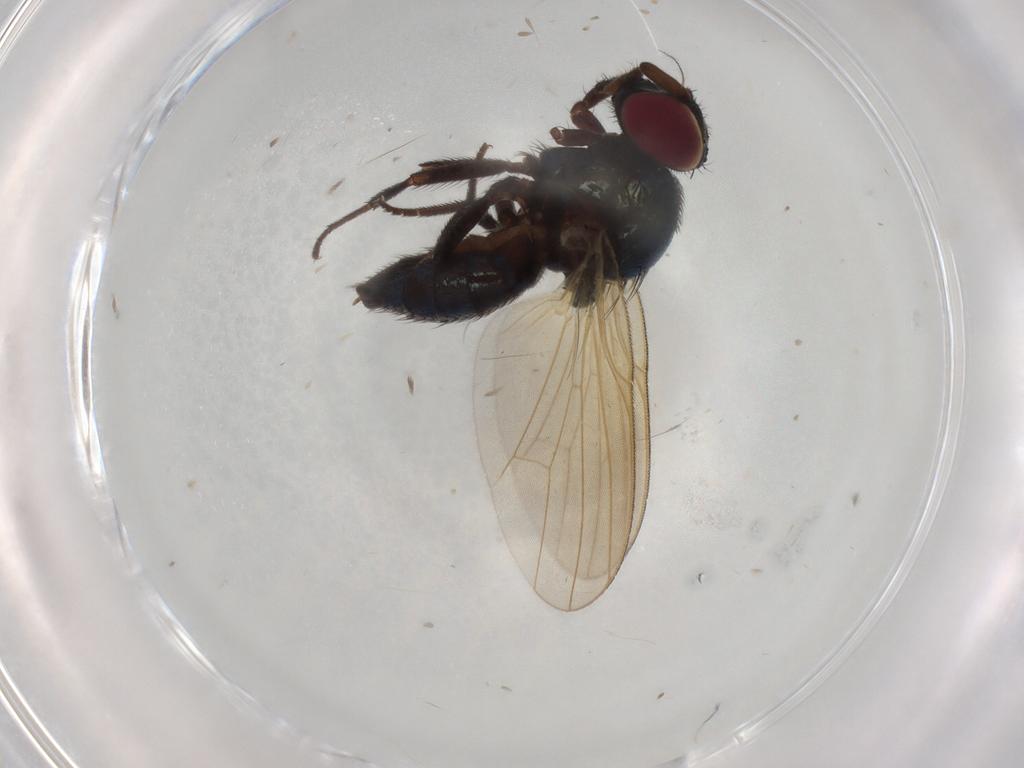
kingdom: Animalia
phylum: Arthropoda
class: Insecta
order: Diptera
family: Lonchaeidae
